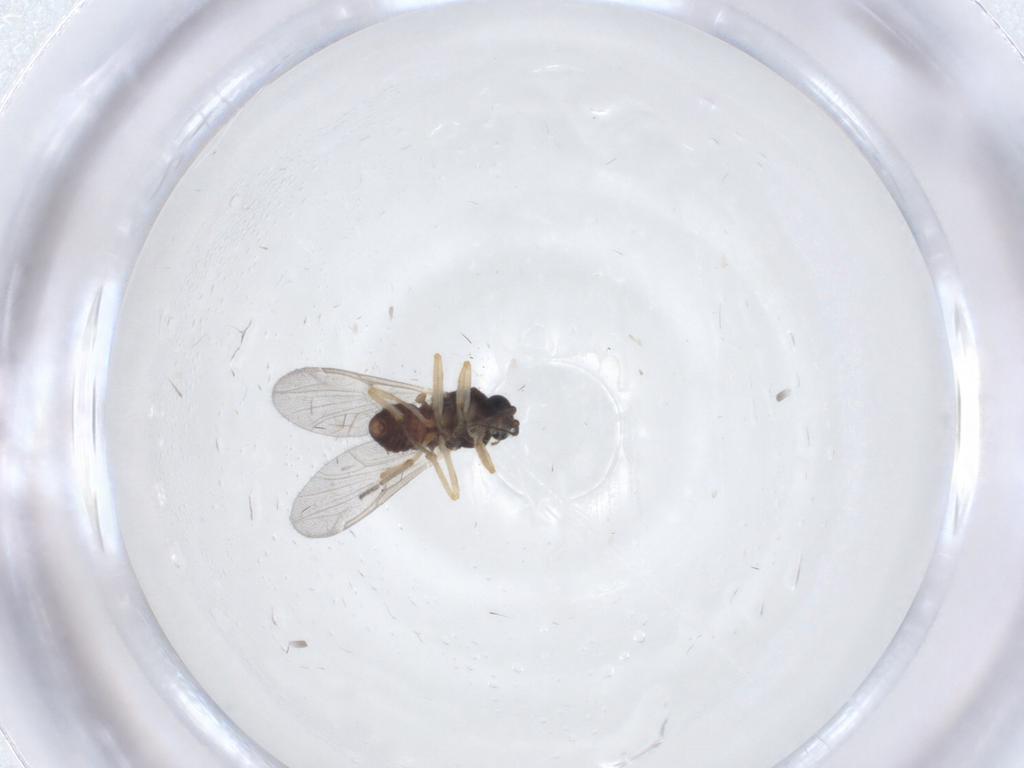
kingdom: Animalia
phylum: Arthropoda
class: Insecta
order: Diptera
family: Ceratopogonidae
